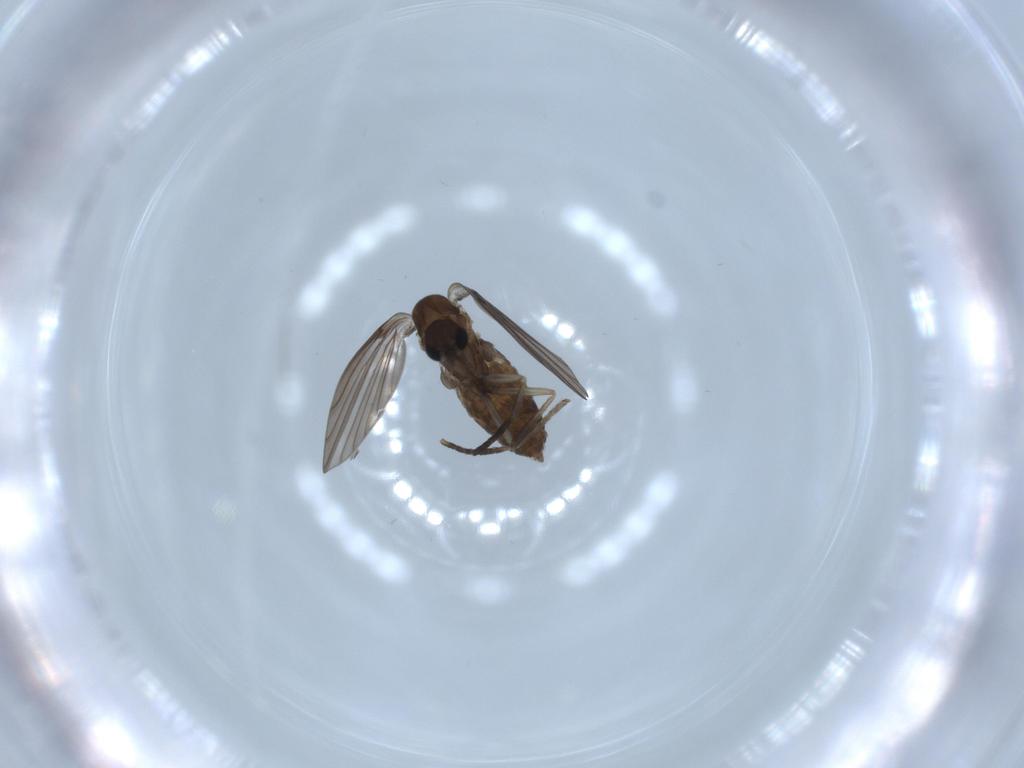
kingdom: Animalia
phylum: Arthropoda
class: Insecta
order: Diptera
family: Psychodidae
